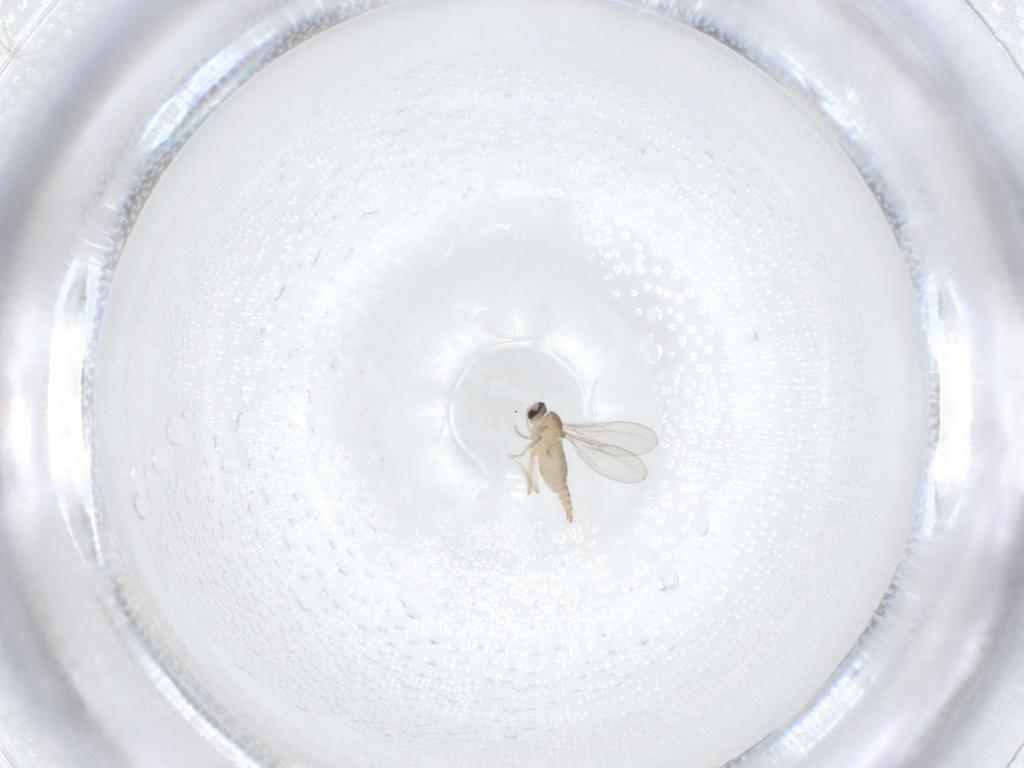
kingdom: Animalia
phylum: Arthropoda
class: Insecta
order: Diptera
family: Cecidomyiidae
